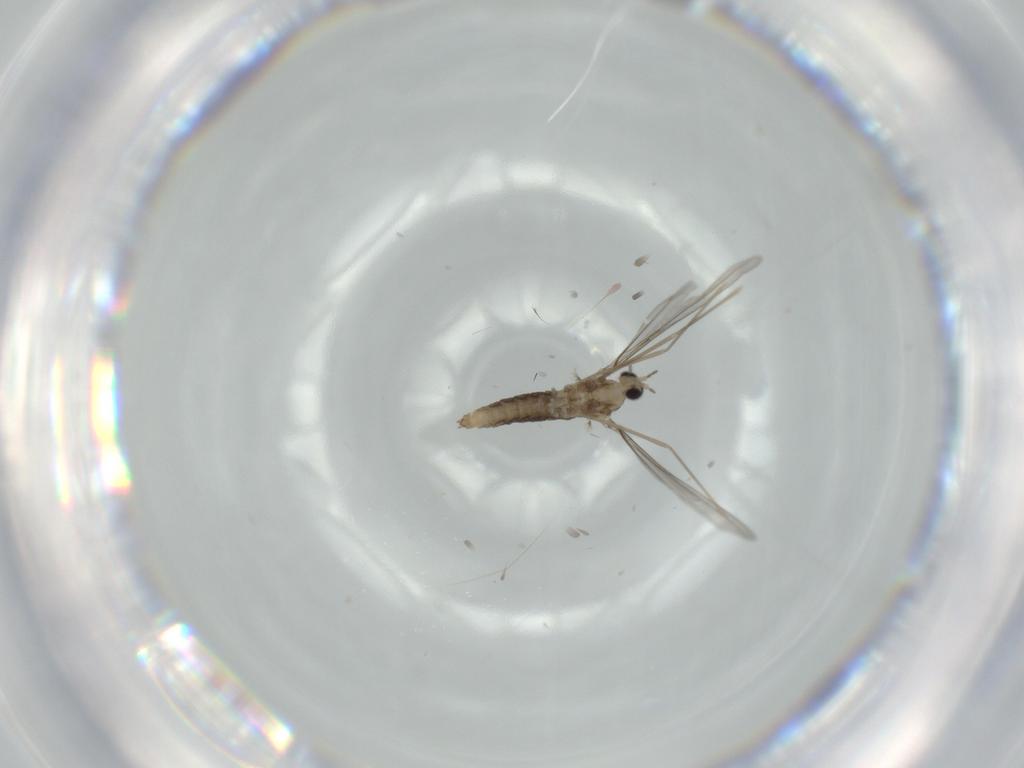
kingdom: Animalia
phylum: Arthropoda
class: Insecta
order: Diptera
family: Cecidomyiidae
